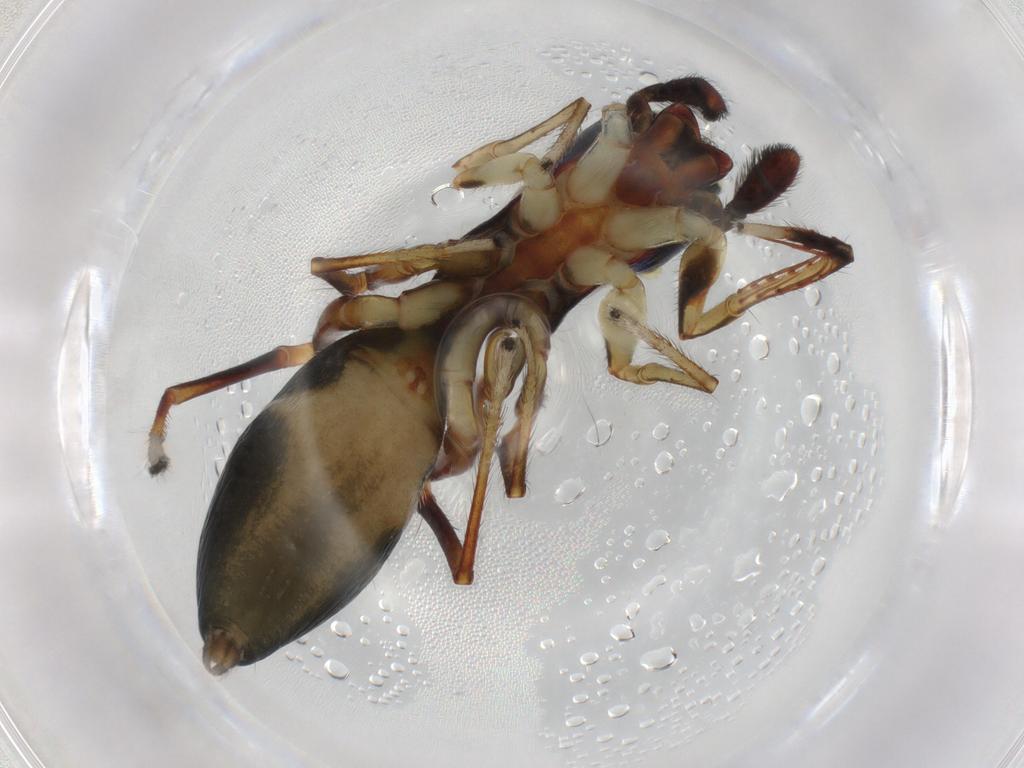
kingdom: Animalia
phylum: Arthropoda
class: Arachnida
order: Araneae
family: Salticidae
